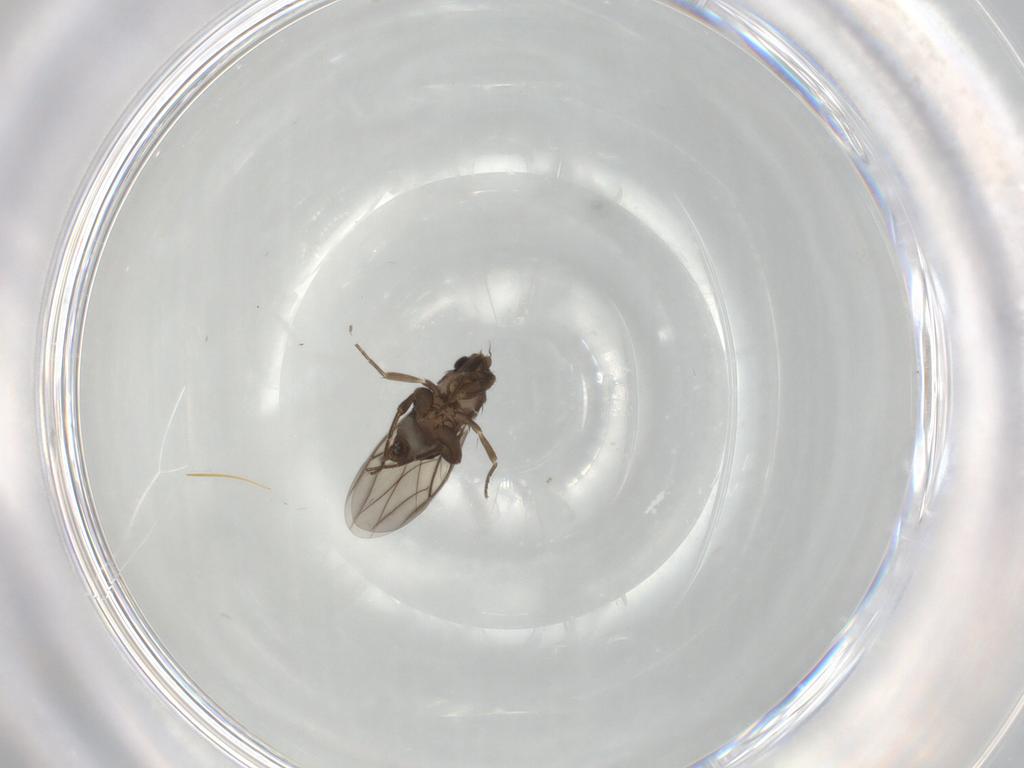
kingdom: Animalia
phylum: Arthropoda
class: Insecta
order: Diptera
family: Phoridae
